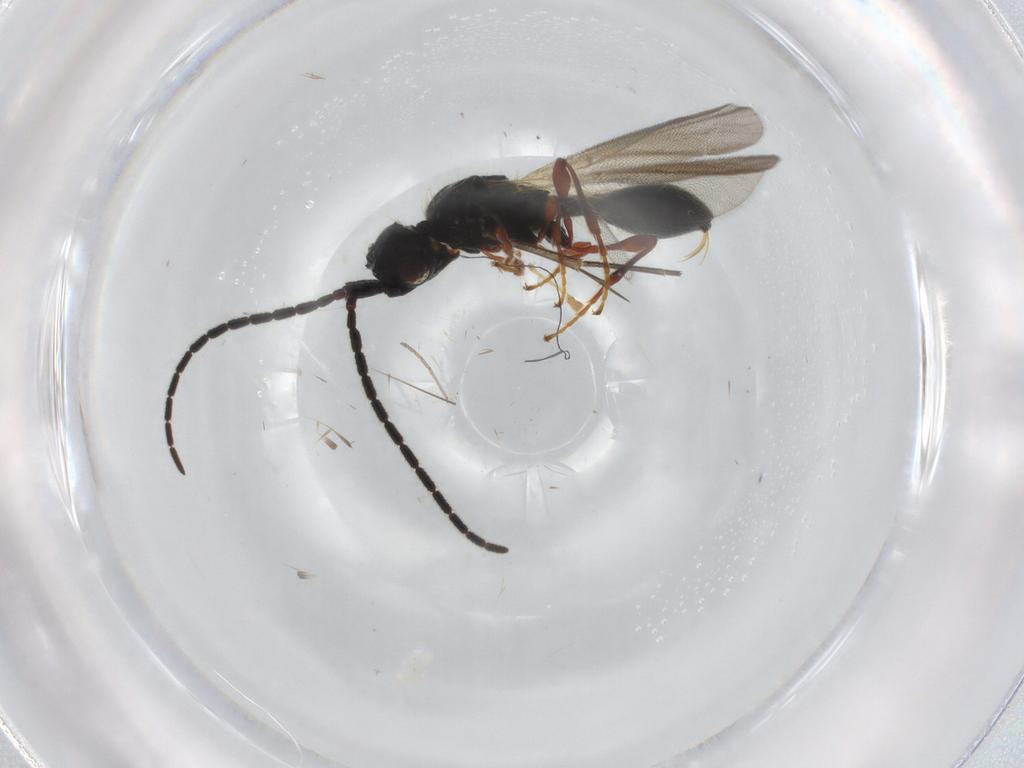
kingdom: Animalia
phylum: Arthropoda
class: Insecta
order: Hymenoptera
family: Diapriidae
